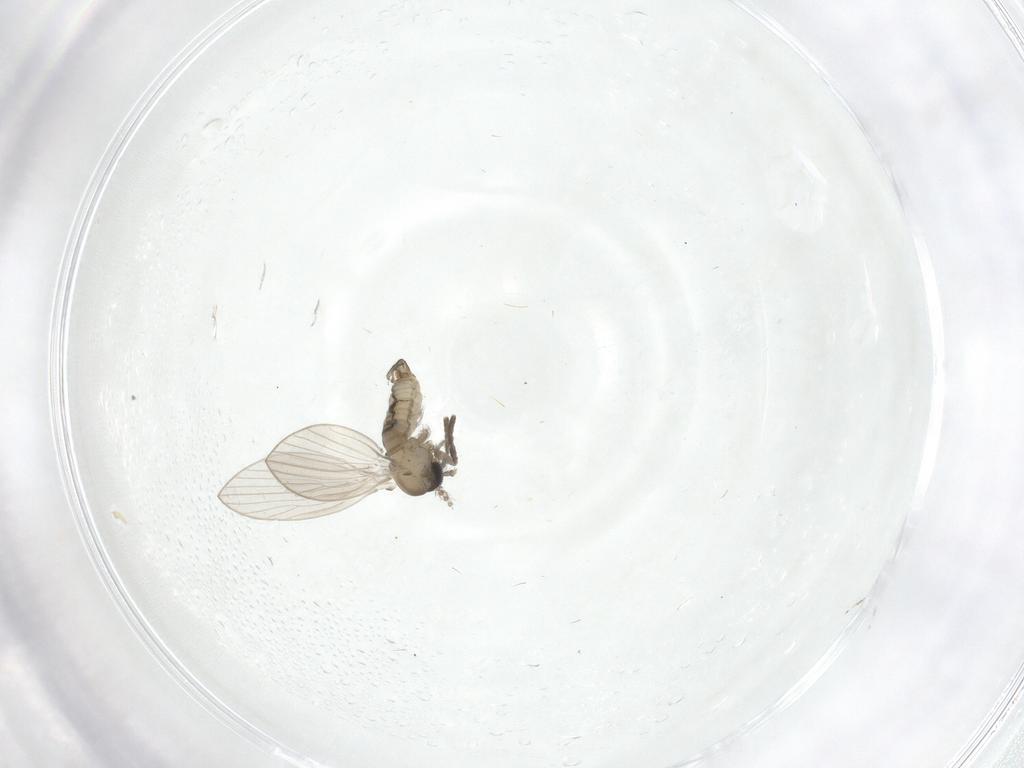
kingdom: Animalia
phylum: Arthropoda
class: Insecta
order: Diptera
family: Psychodidae
